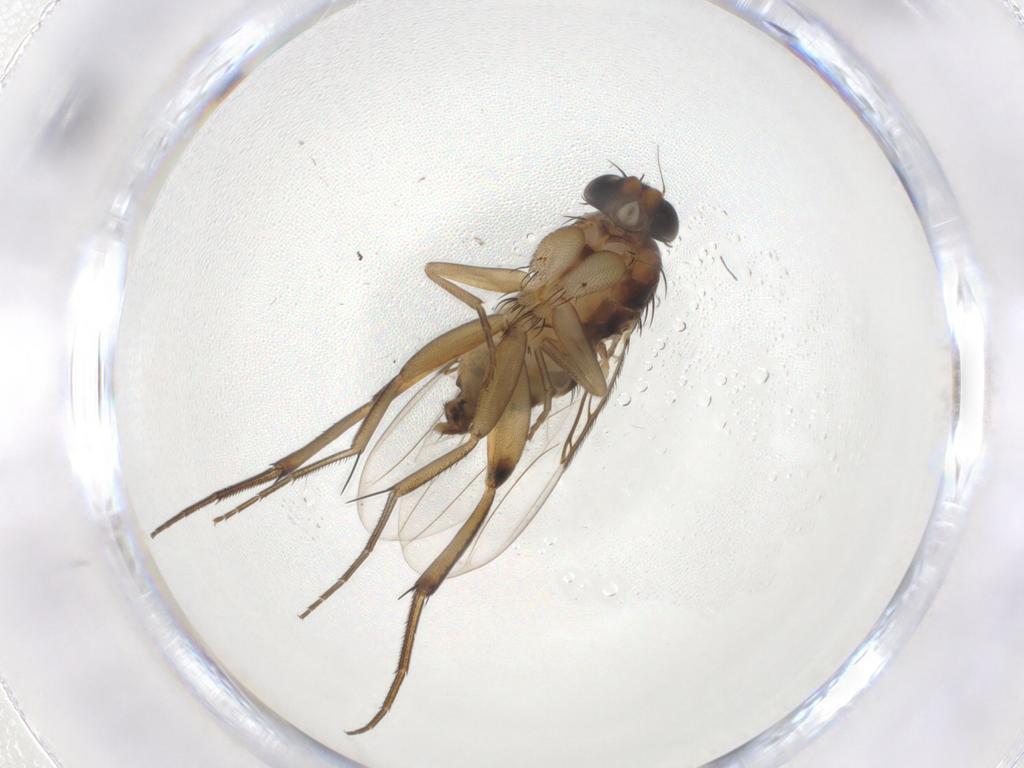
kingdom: Animalia
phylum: Arthropoda
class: Insecta
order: Diptera
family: Phoridae
